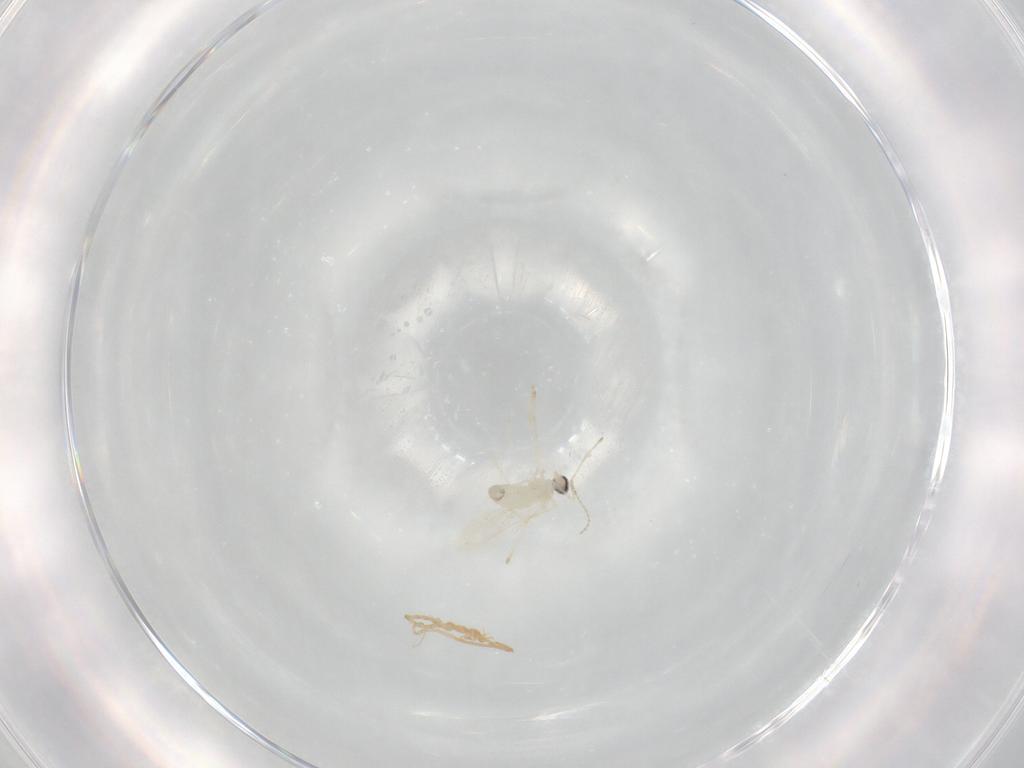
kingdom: Animalia
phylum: Arthropoda
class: Insecta
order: Diptera
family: Cecidomyiidae
